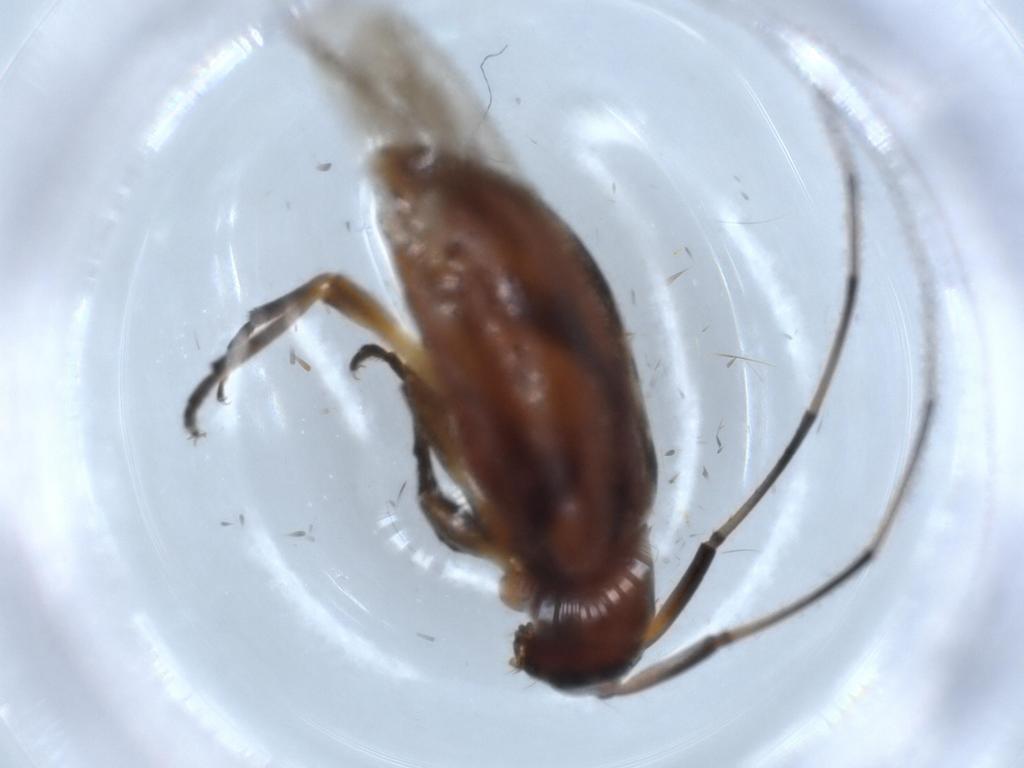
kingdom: Animalia
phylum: Arthropoda
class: Insecta
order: Coleoptera
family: Cerambycidae
